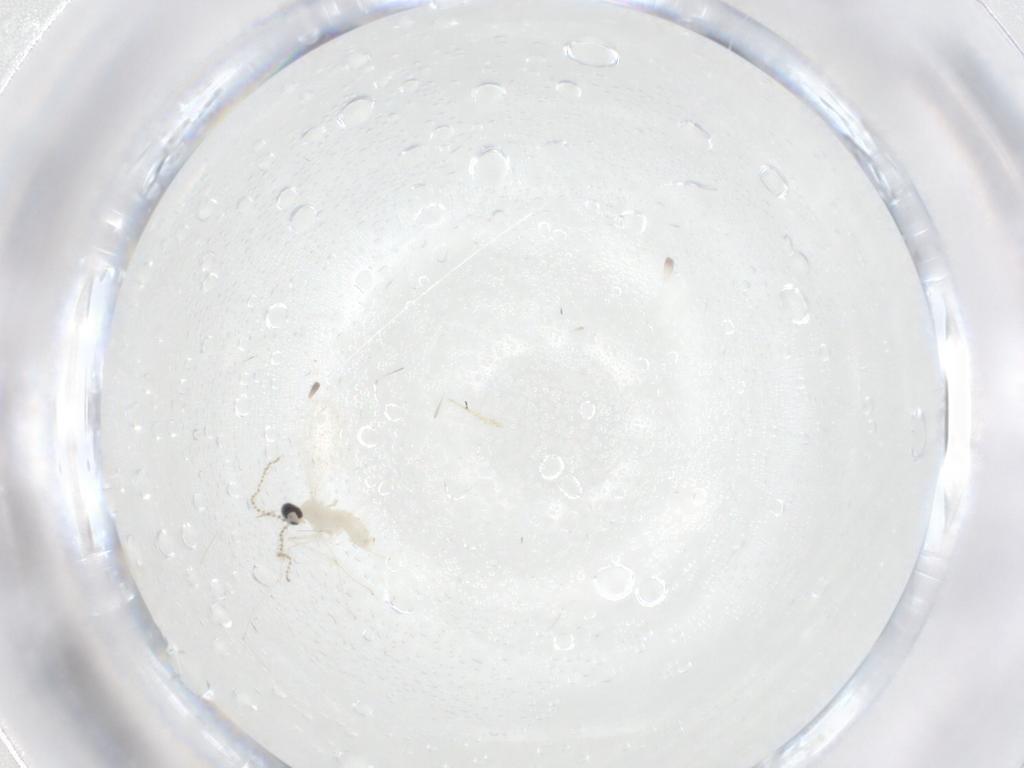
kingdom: Animalia
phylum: Arthropoda
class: Insecta
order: Diptera
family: Chironomidae
